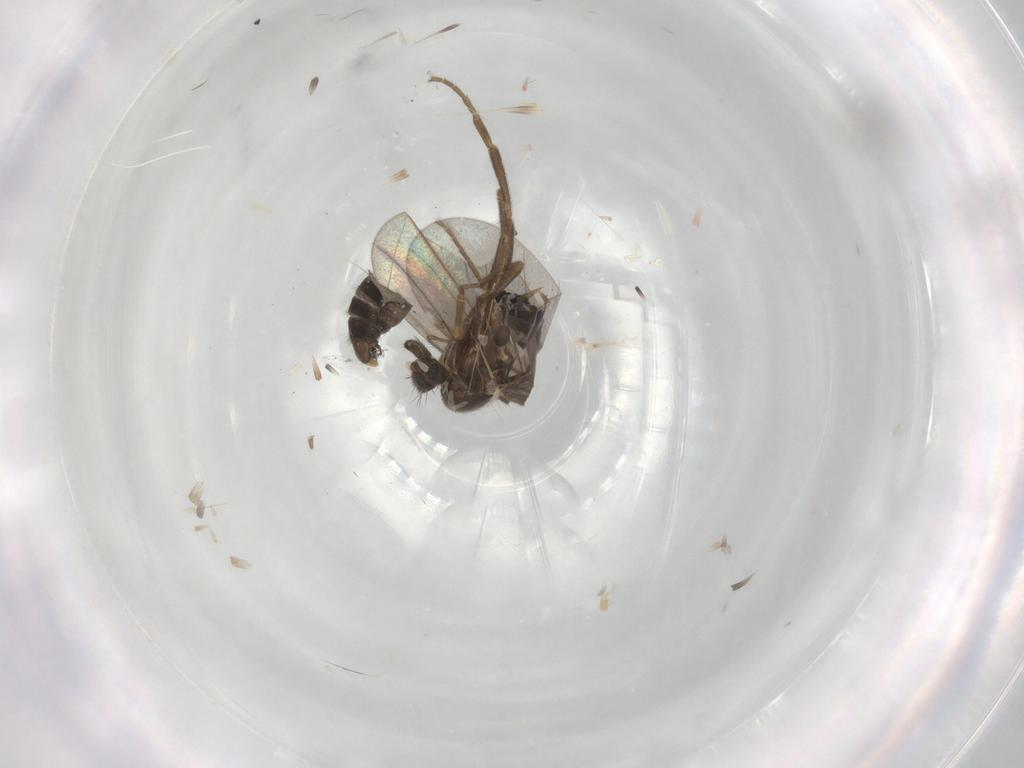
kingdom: Animalia
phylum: Arthropoda
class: Insecta
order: Diptera
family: Cecidomyiidae
